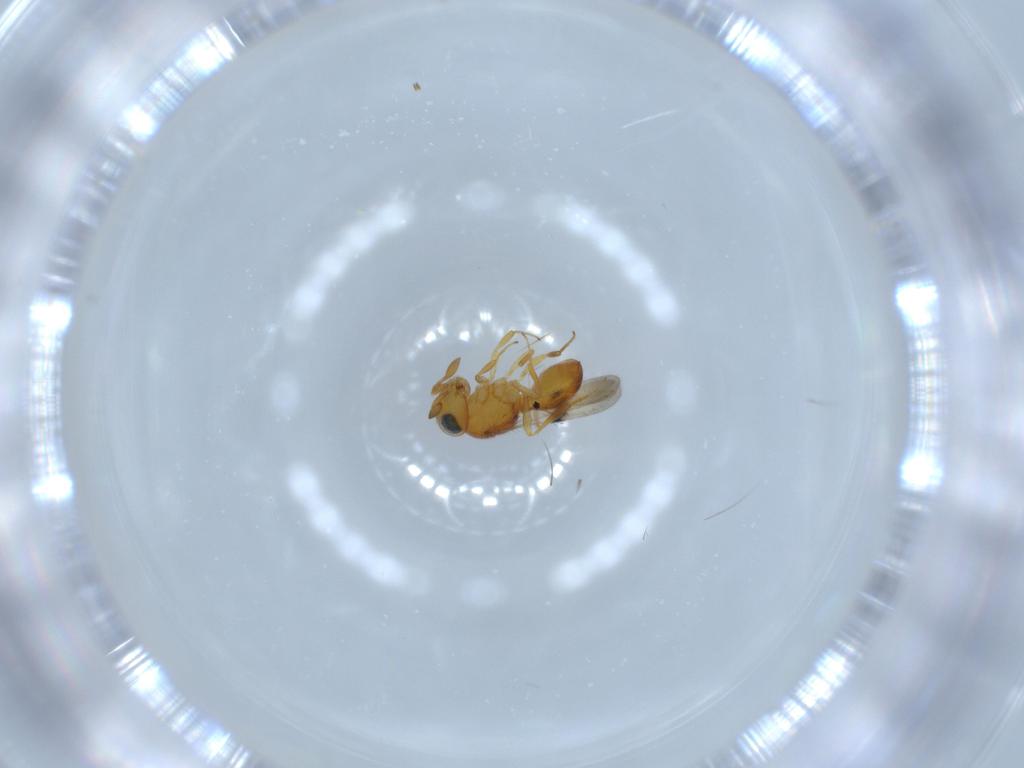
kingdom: Animalia
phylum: Arthropoda
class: Insecta
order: Hymenoptera
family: Scelionidae
